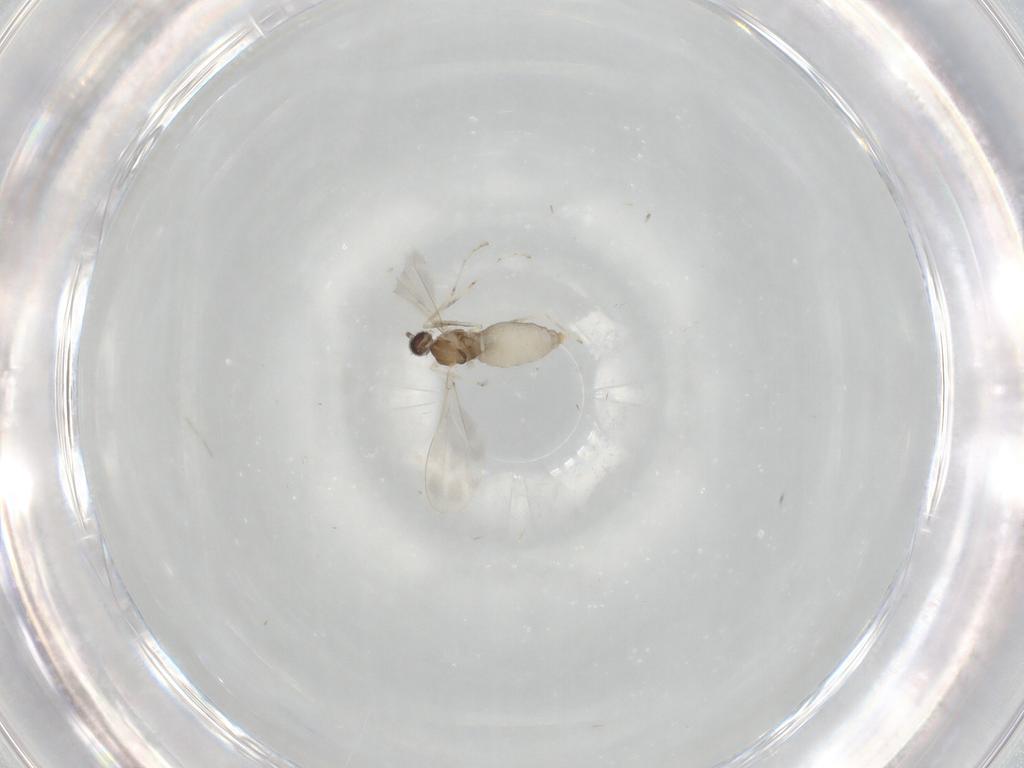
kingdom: Animalia
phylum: Arthropoda
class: Insecta
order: Diptera
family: Cecidomyiidae
